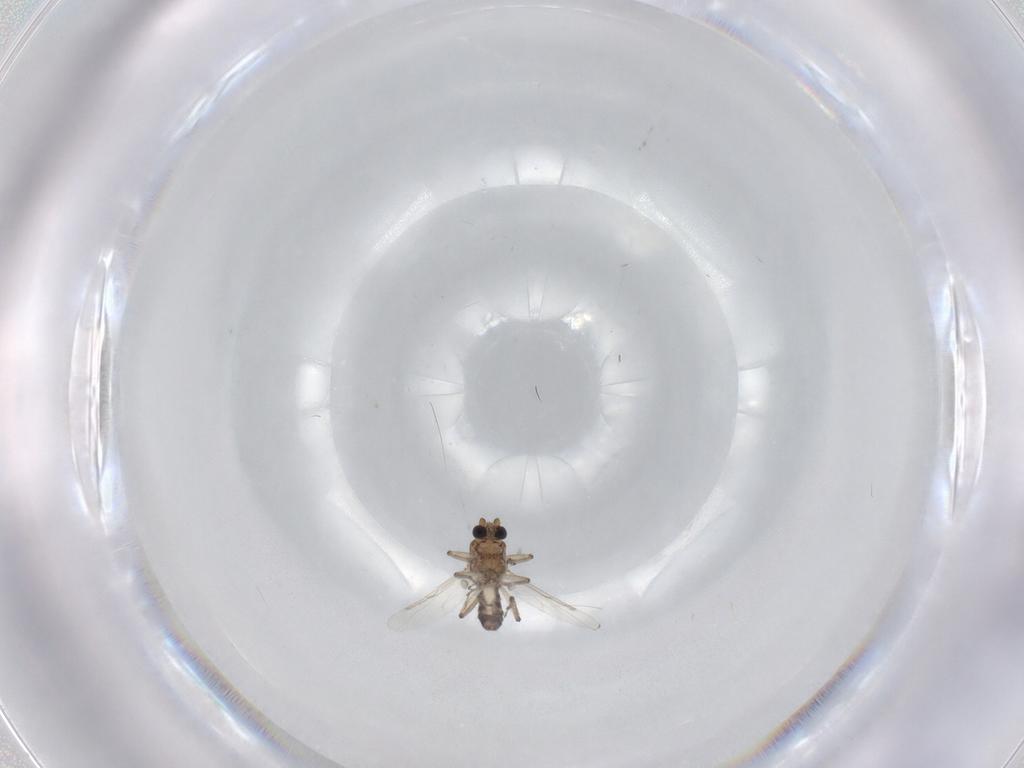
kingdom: Animalia
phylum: Arthropoda
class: Insecta
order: Diptera
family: Ceratopogonidae
